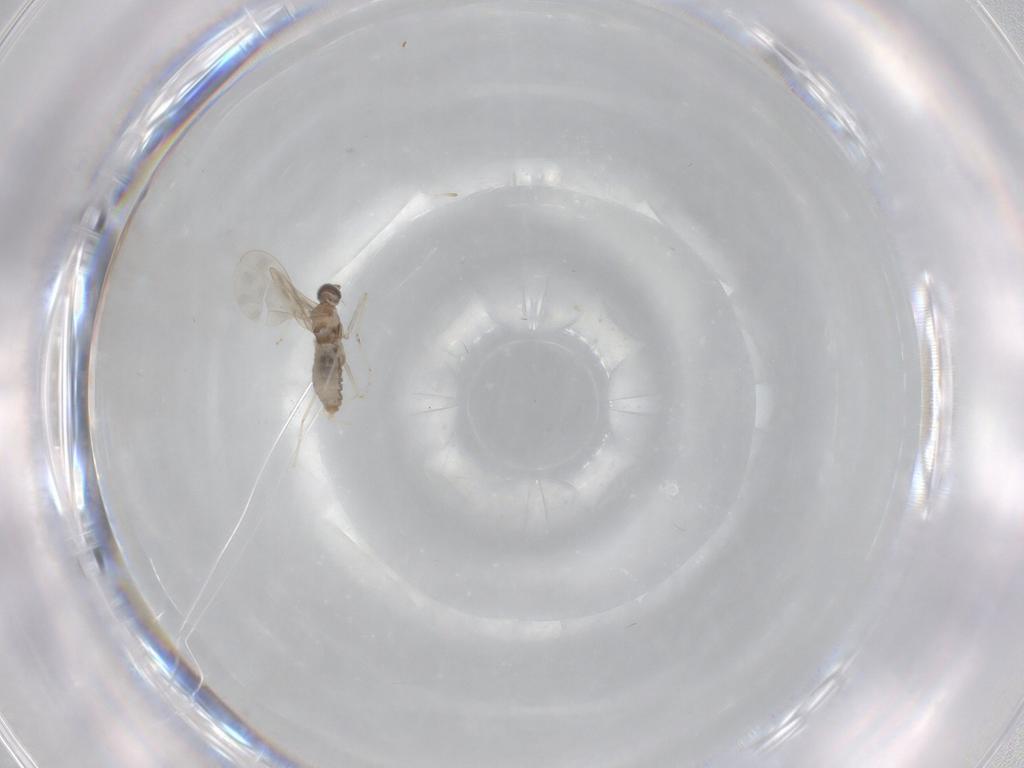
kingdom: Animalia
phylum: Arthropoda
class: Insecta
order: Diptera
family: Cecidomyiidae
